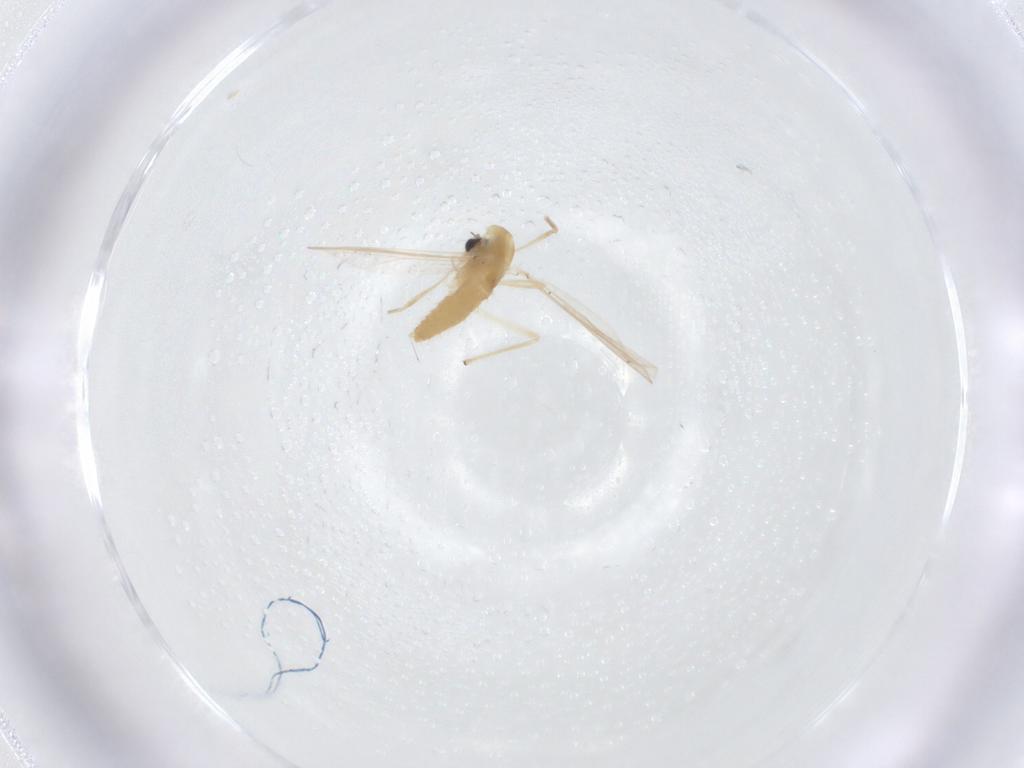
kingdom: Animalia
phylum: Arthropoda
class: Insecta
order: Diptera
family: Chironomidae
